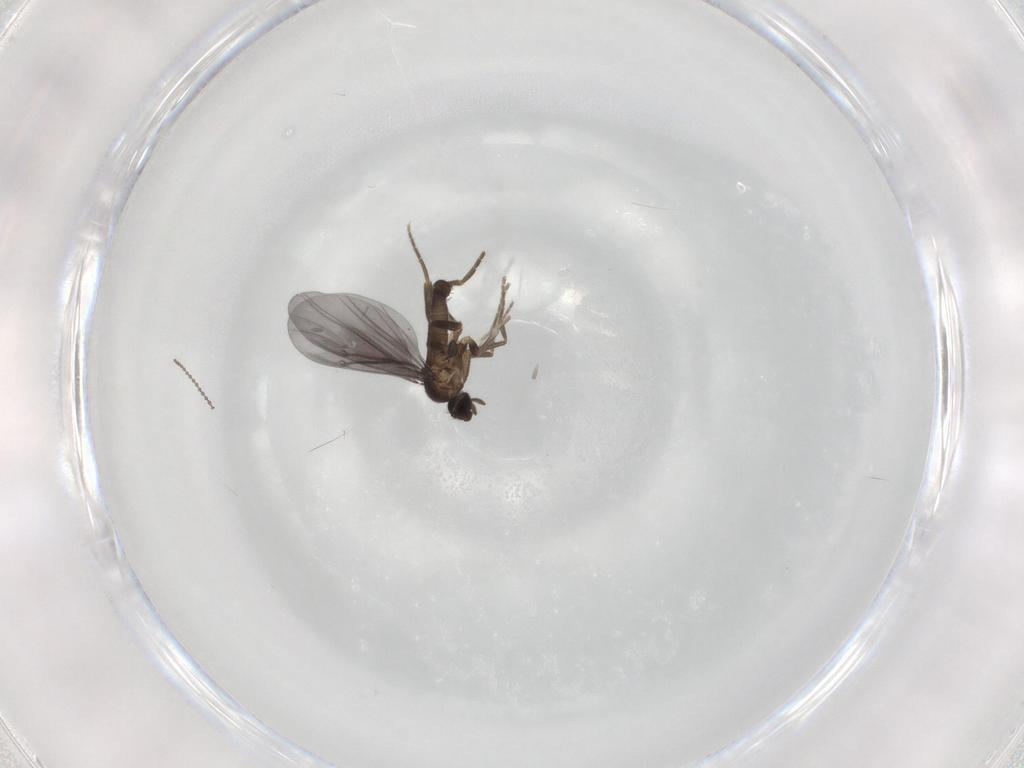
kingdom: Animalia
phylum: Arthropoda
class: Insecta
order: Diptera
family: Phoridae
